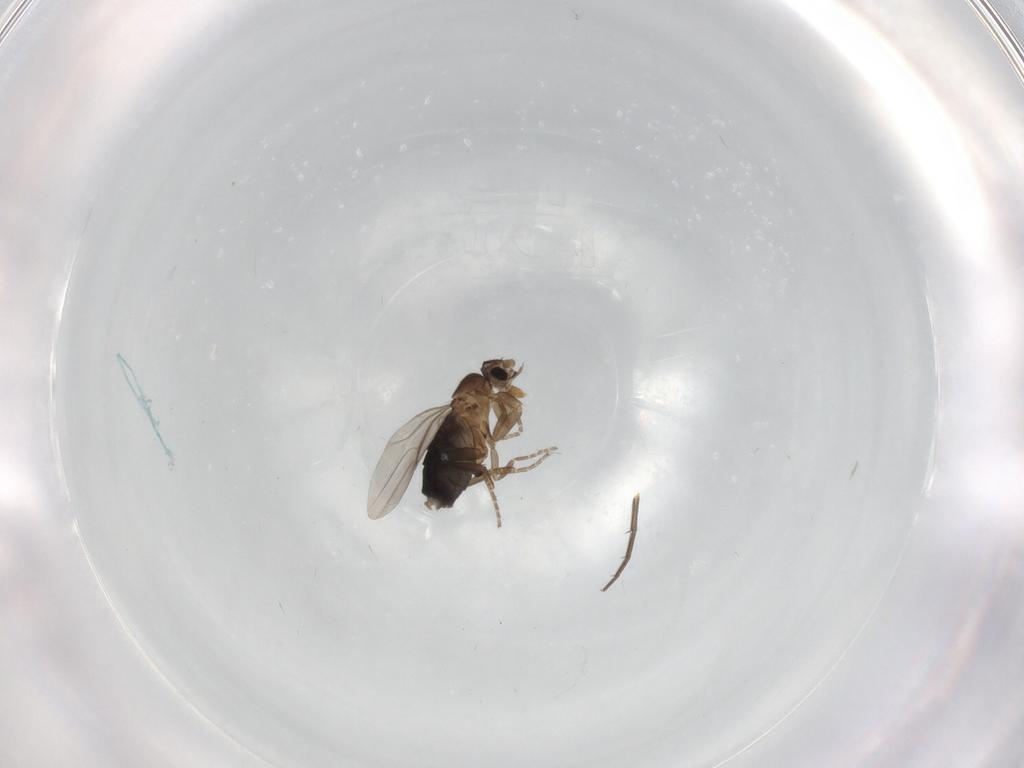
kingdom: Animalia
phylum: Arthropoda
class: Insecta
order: Diptera
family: Phoridae
